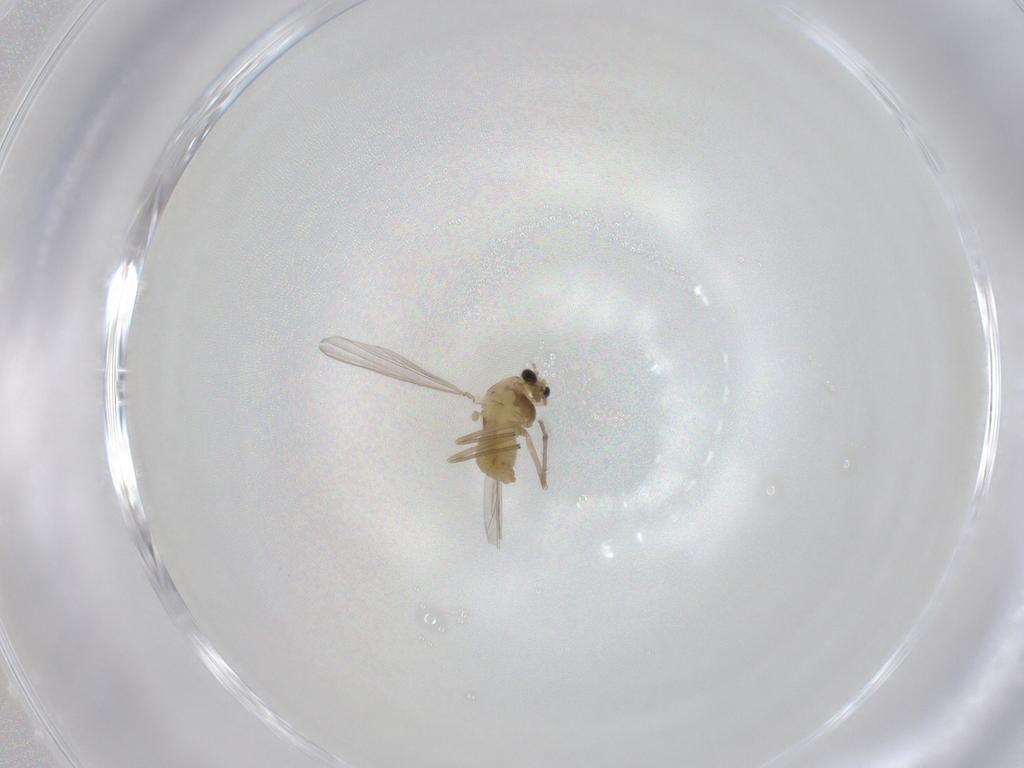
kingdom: Animalia
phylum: Arthropoda
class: Insecta
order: Diptera
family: Chironomidae
